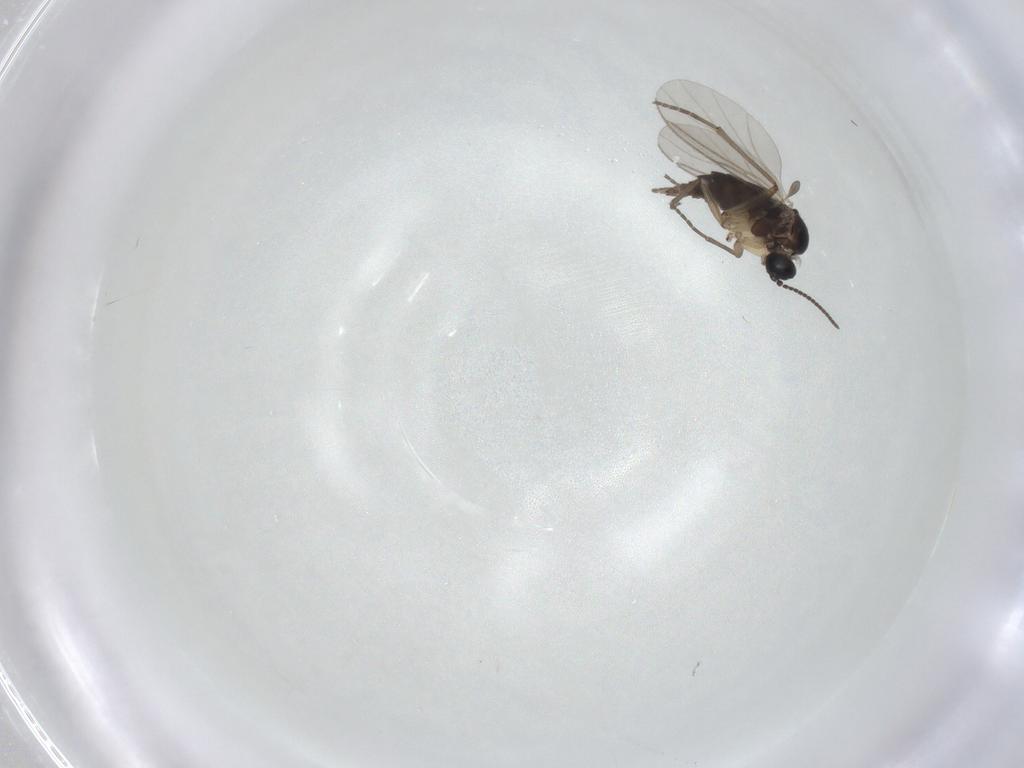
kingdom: Animalia
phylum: Arthropoda
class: Insecta
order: Diptera
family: Sciaridae
